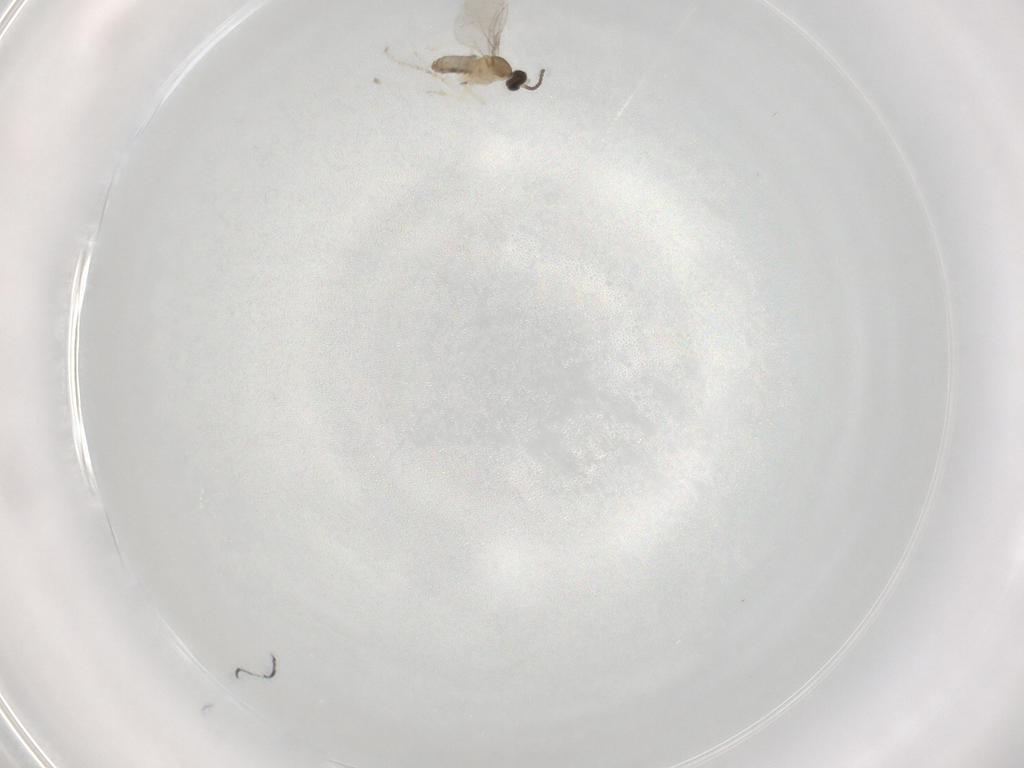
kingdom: Animalia
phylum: Arthropoda
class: Insecta
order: Diptera
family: Cecidomyiidae
